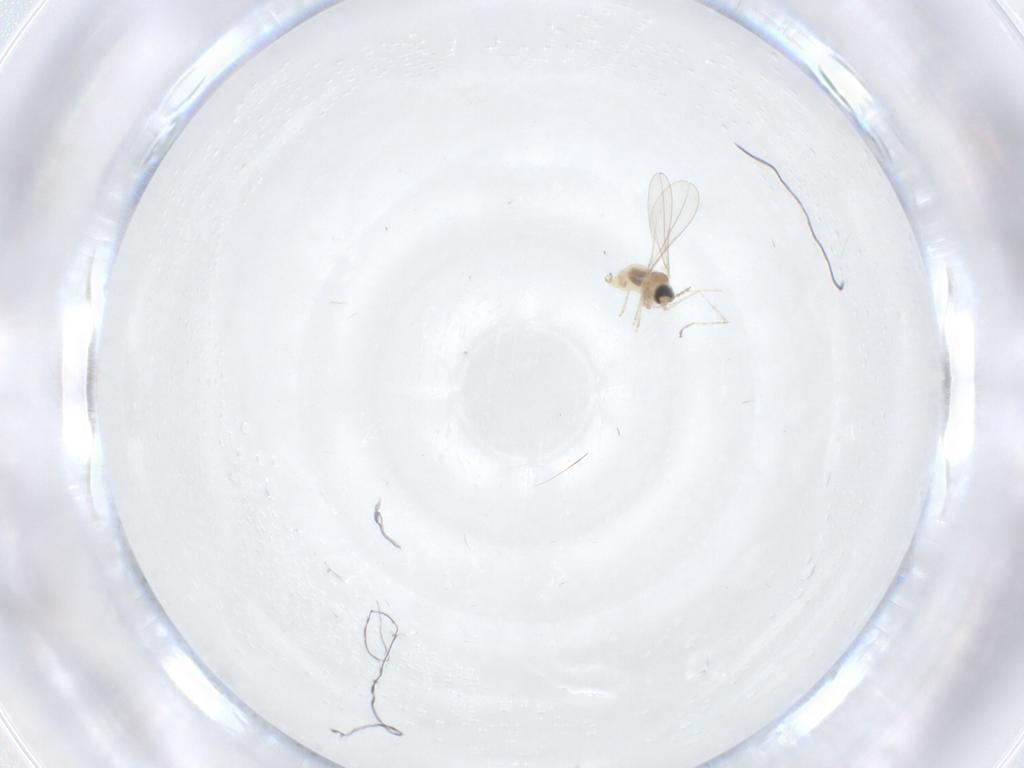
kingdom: Animalia
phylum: Arthropoda
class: Insecta
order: Diptera
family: Cecidomyiidae
